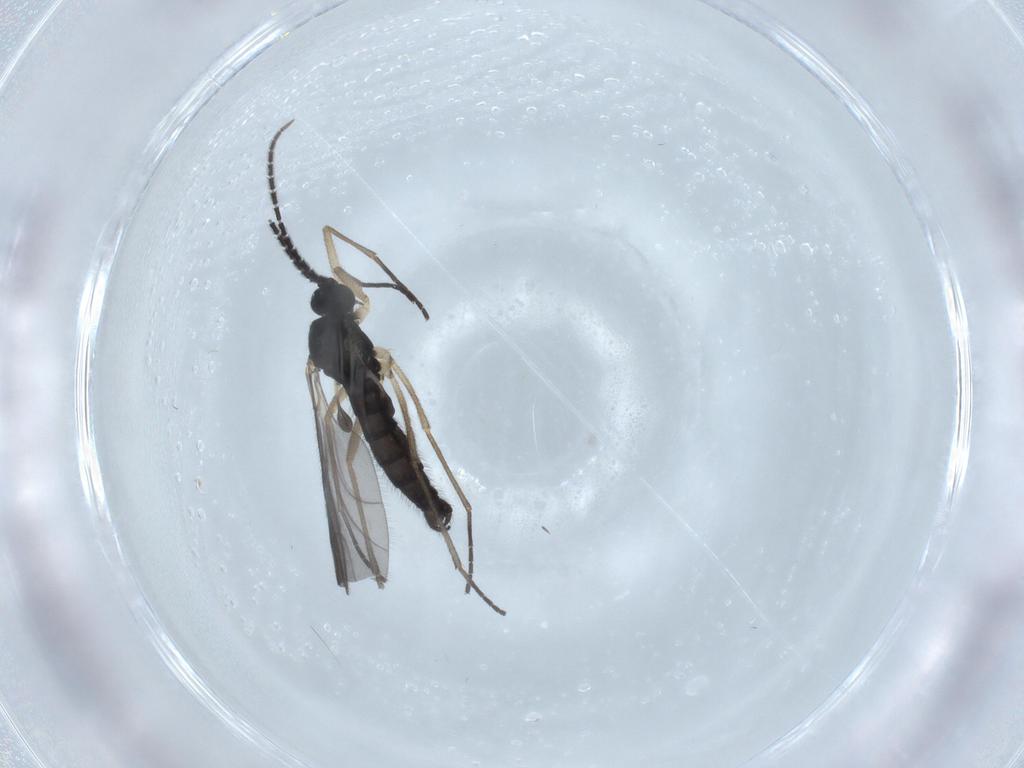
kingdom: Animalia
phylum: Arthropoda
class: Insecta
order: Diptera
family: Sciaridae
